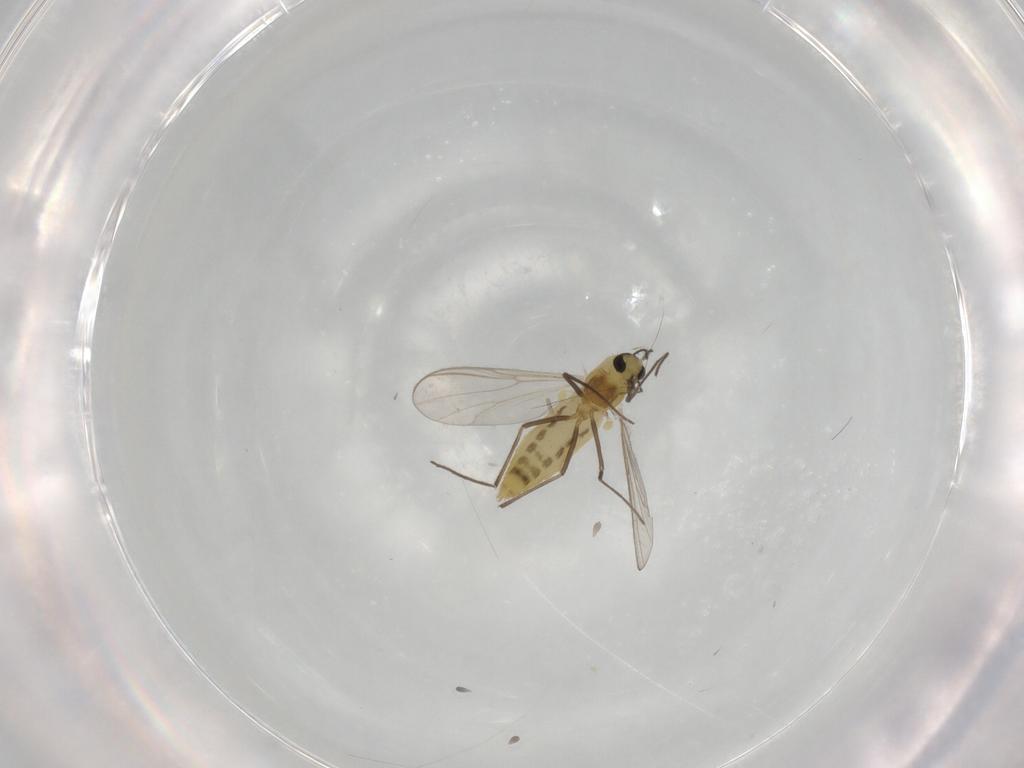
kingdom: Animalia
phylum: Arthropoda
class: Insecta
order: Diptera
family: Chironomidae
